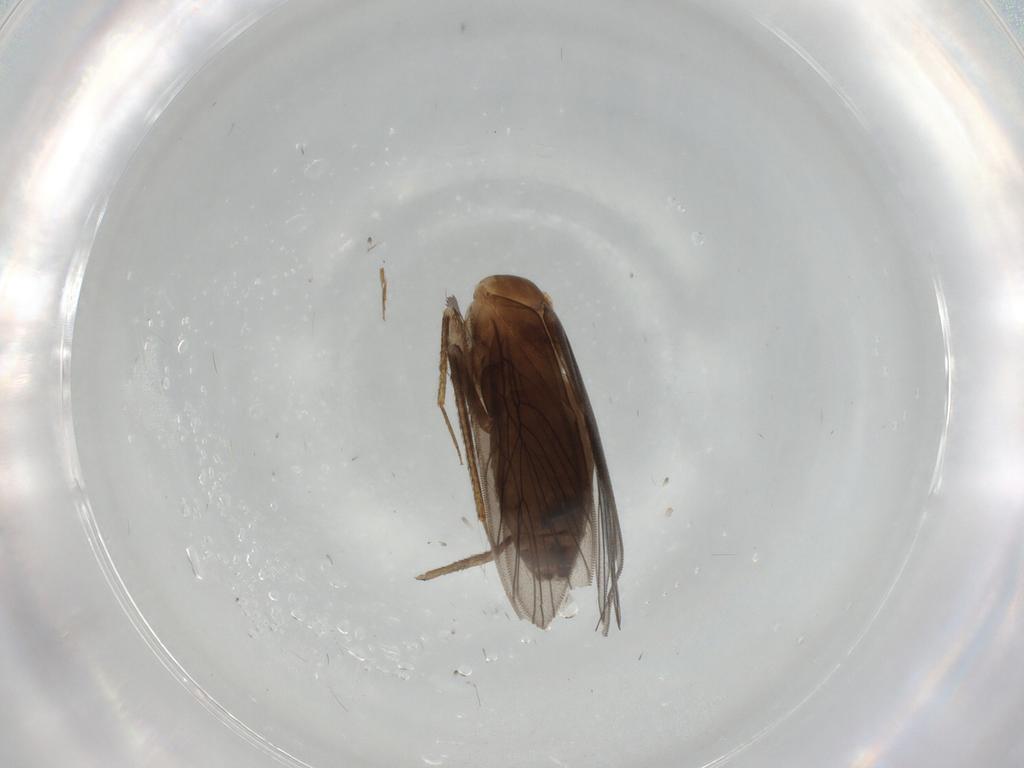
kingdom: Animalia
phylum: Arthropoda
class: Insecta
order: Psocodea
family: Lepidopsocidae
